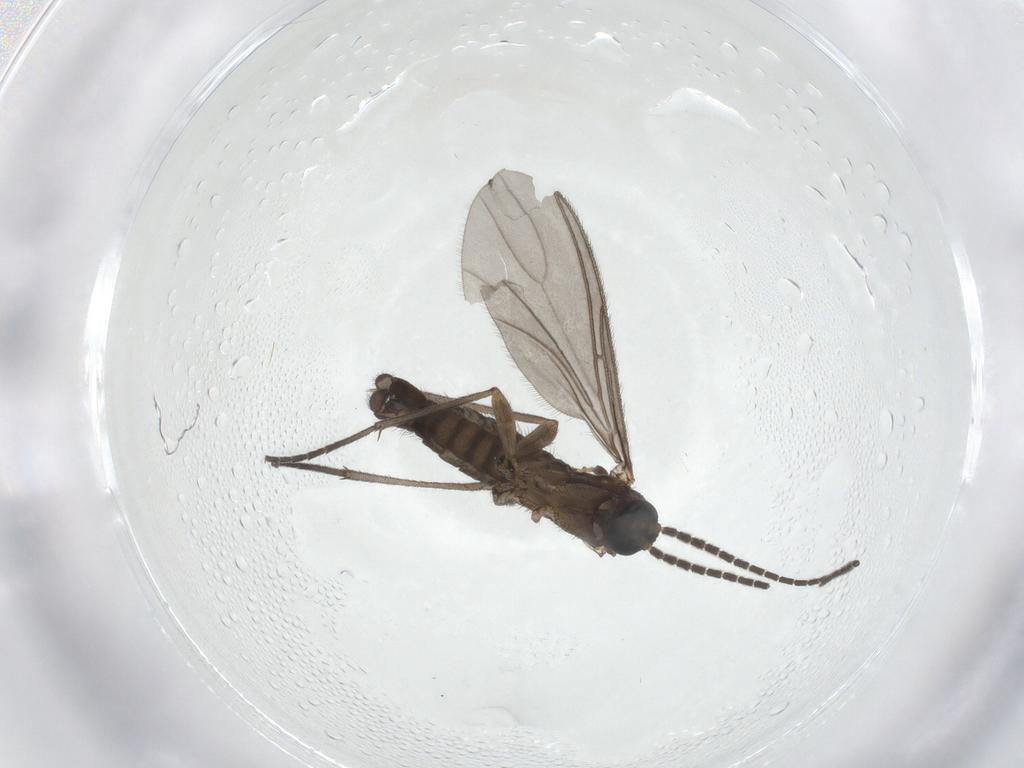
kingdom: Animalia
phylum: Arthropoda
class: Insecta
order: Diptera
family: Sciaridae
